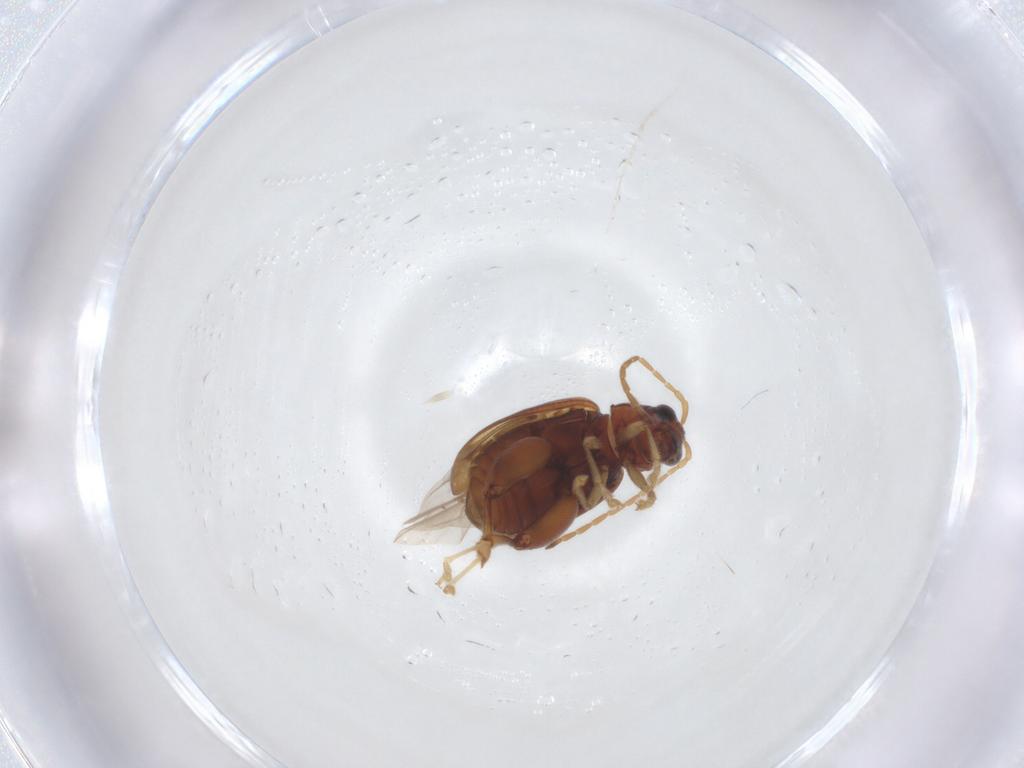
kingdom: Animalia
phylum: Arthropoda
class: Insecta
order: Coleoptera
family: Chrysomelidae
